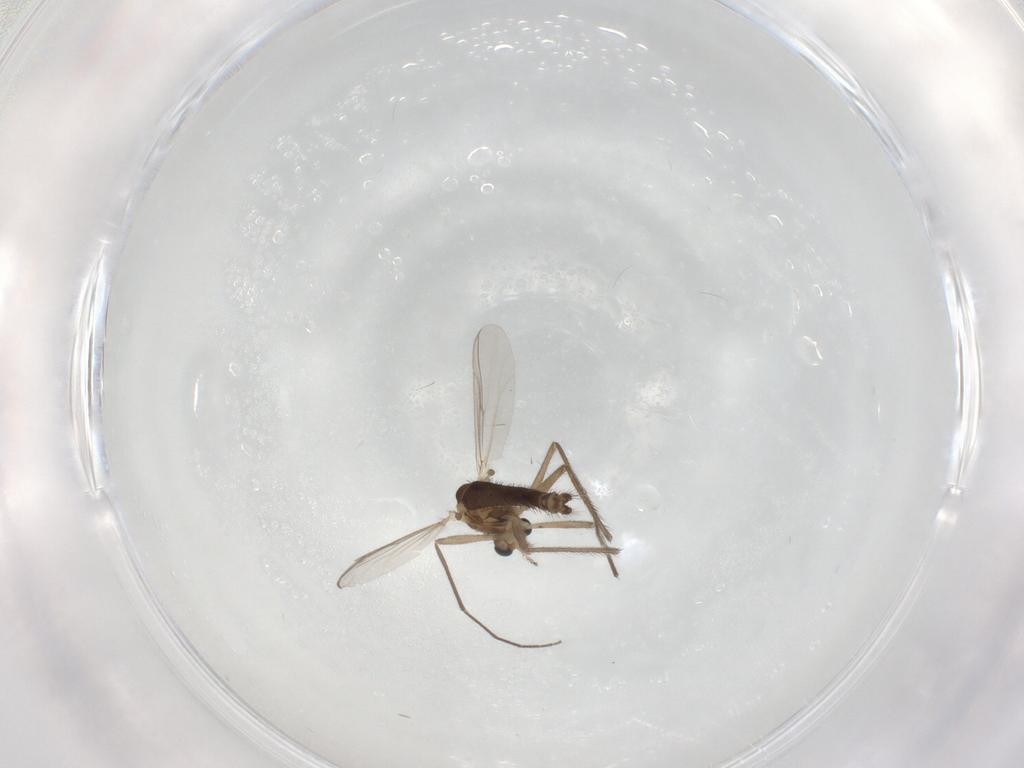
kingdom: Animalia
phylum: Arthropoda
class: Insecta
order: Diptera
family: Chironomidae
